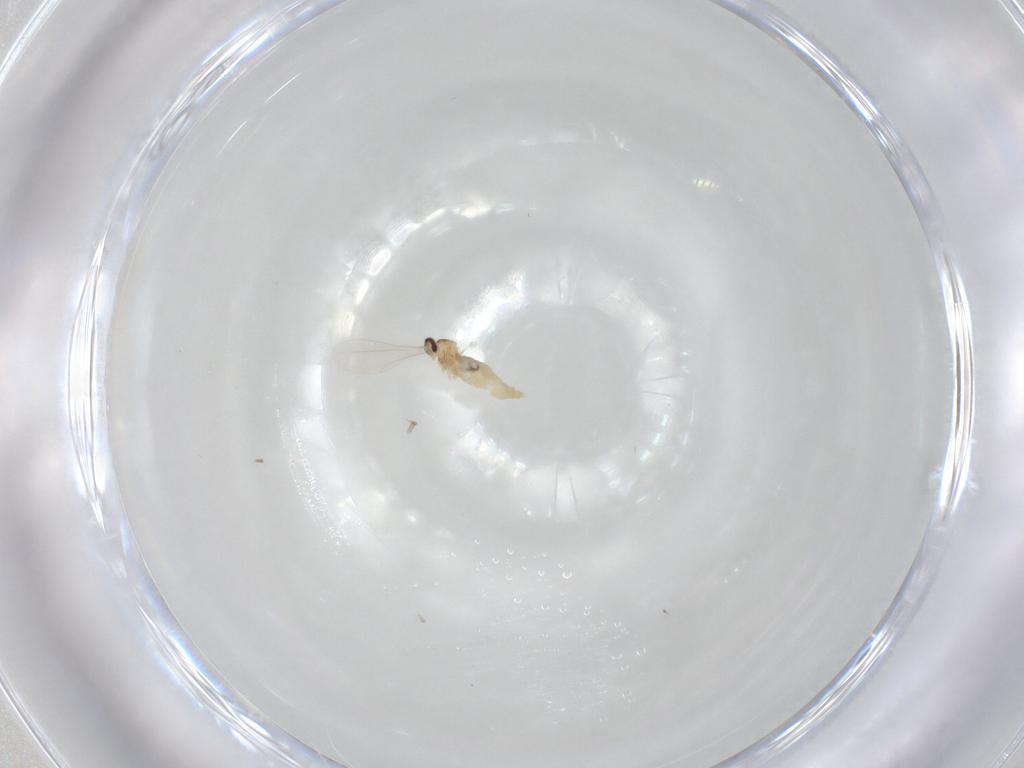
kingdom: Animalia
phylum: Arthropoda
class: Insecta
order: Diptera
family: Cecidomyiidae
